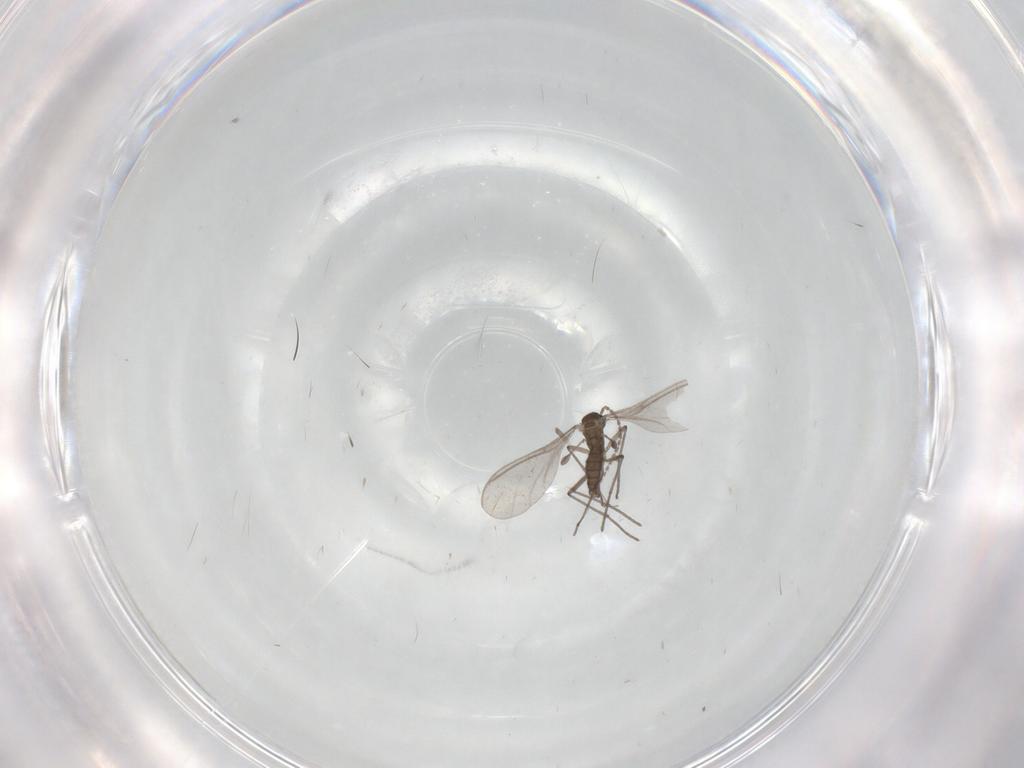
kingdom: Animalia
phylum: Arthropoda
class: Insecta
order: Diptera
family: Sciaridae
